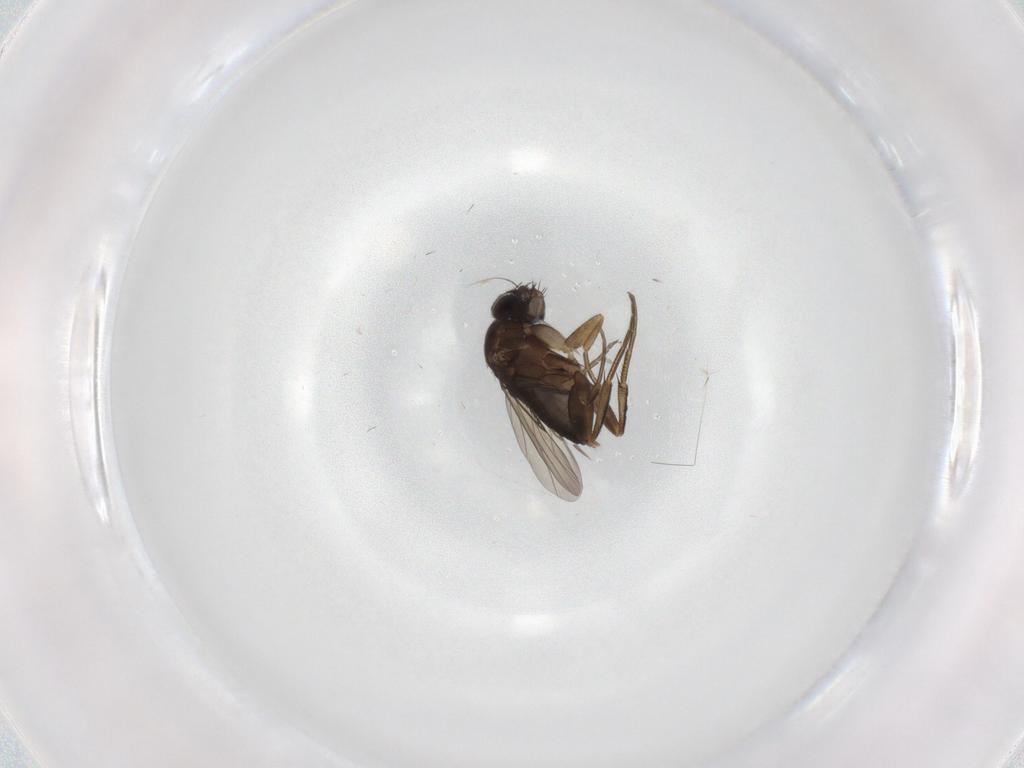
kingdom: Animalia
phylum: Arthropoda
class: Insecta
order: Diptera
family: Phoridae
